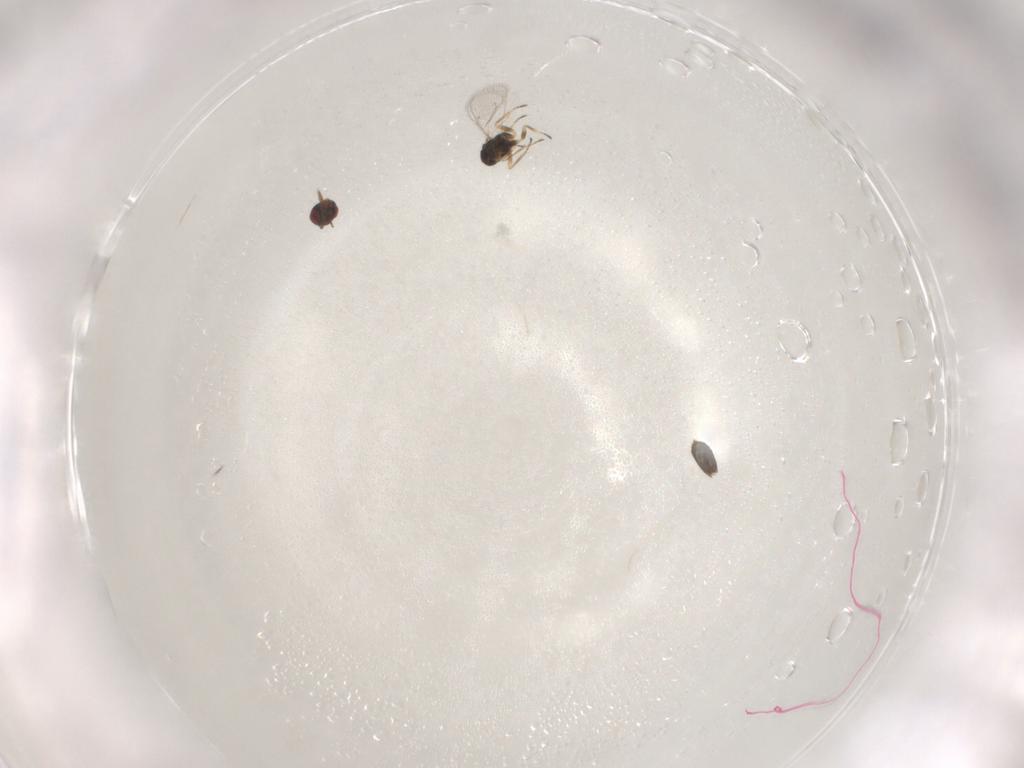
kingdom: Animalia
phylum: Arthropoda
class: Insecta
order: Hymenoptera
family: Eulophidae
